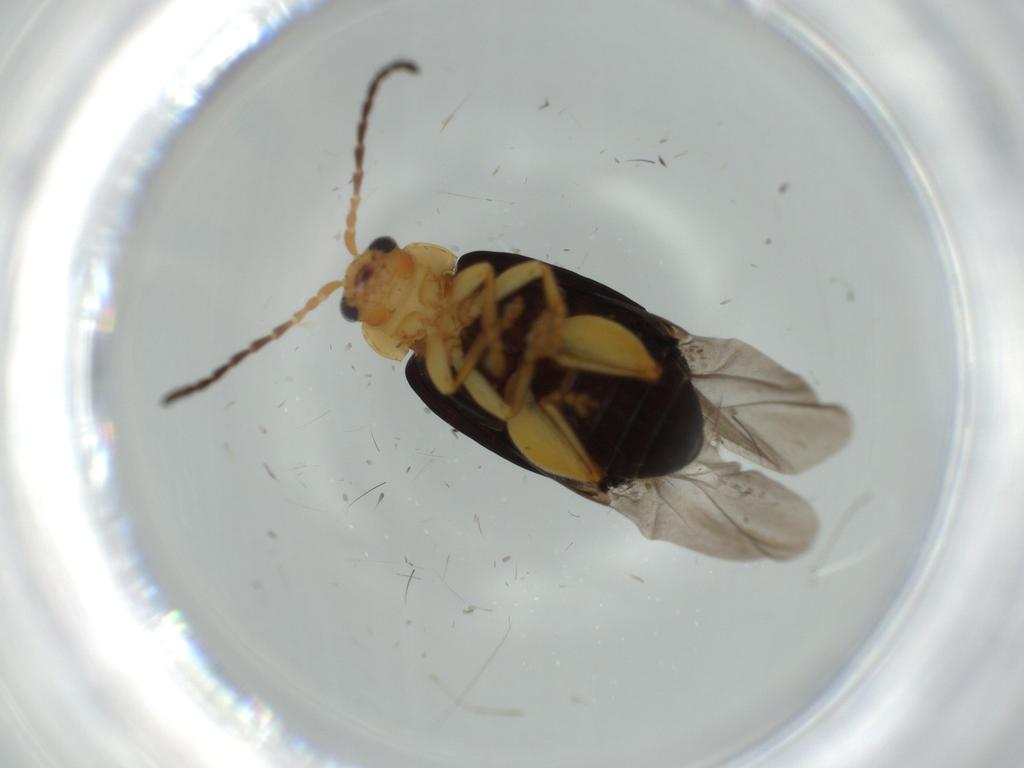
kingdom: Animalia
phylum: Arthropoda
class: Insecta
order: Coleoptera
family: Chrysomelidae
